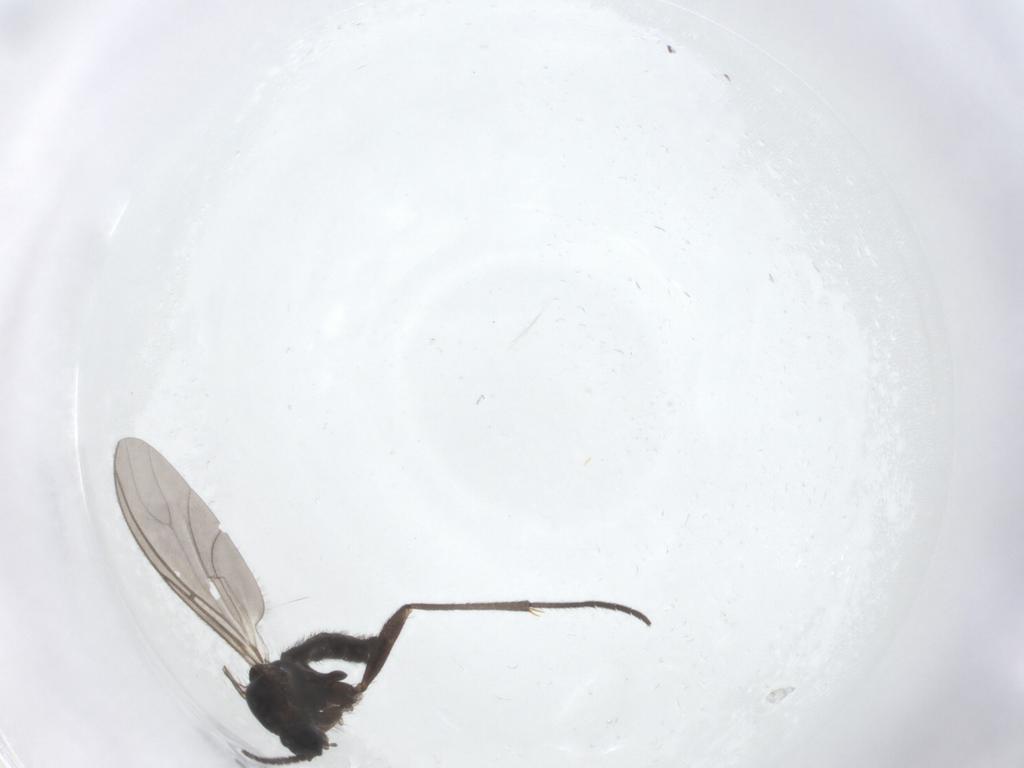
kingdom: Animalia
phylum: Arthropoda
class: Insecta
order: Diptera
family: Sciaridae
